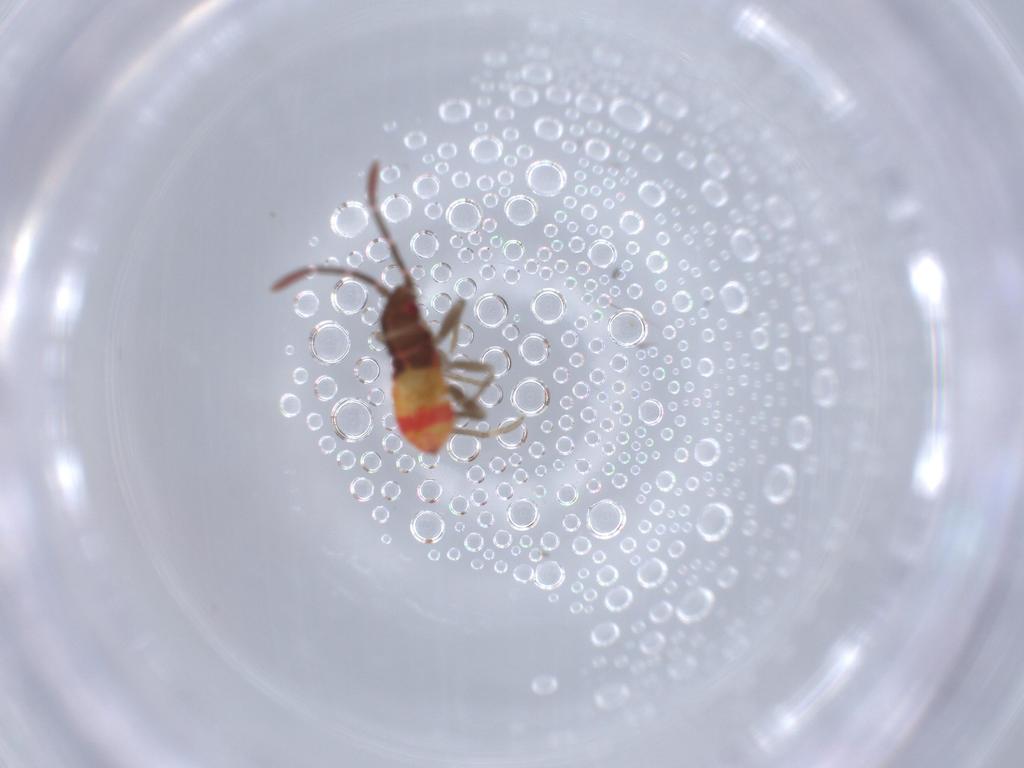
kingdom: Animalia
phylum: Arthropoda
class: Insecta
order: Hemiptera
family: Rhyparochromidae
